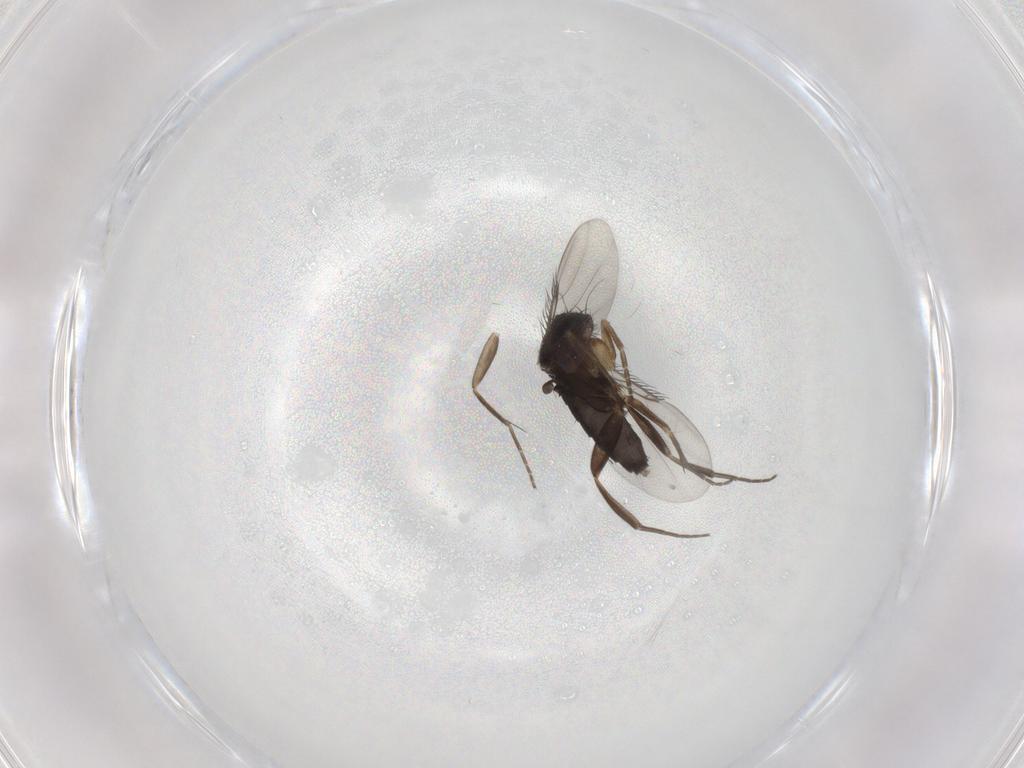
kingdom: Animalia
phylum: Arthropoda
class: Insecta
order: Diptera
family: Phoridae
